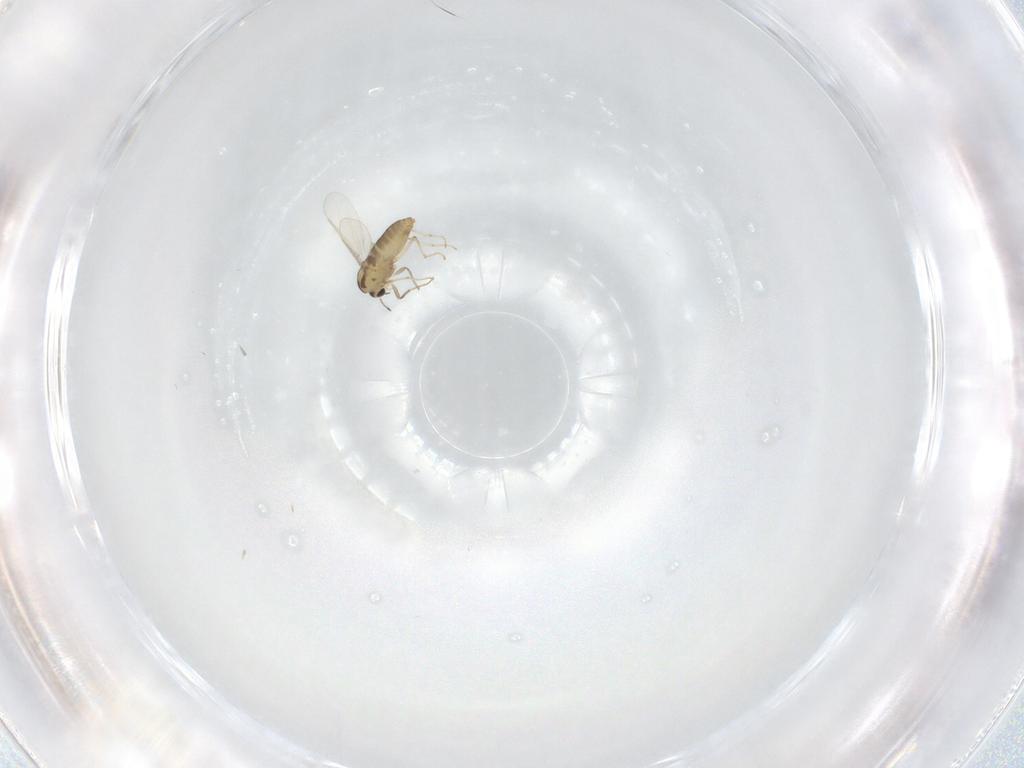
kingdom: Animalia
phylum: Arthropoda
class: Insecta
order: Diptera
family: Chironomidae
